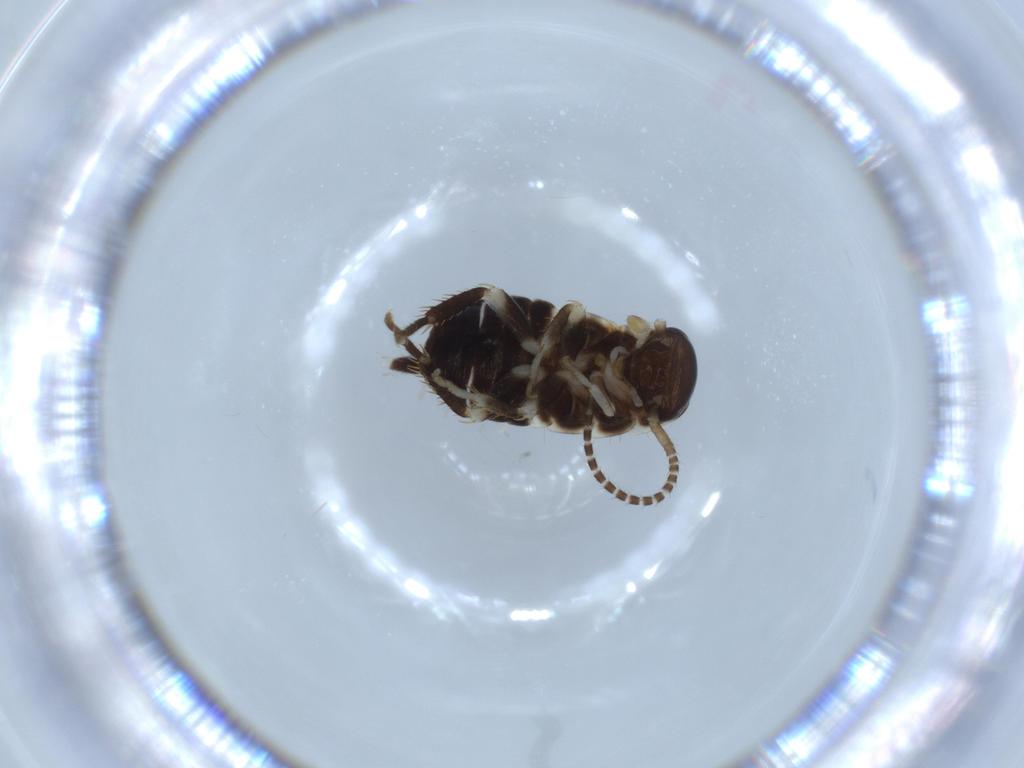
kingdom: Animalia
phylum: Arthropoda
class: Insecta
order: Blattodea
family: Ectobiidae
